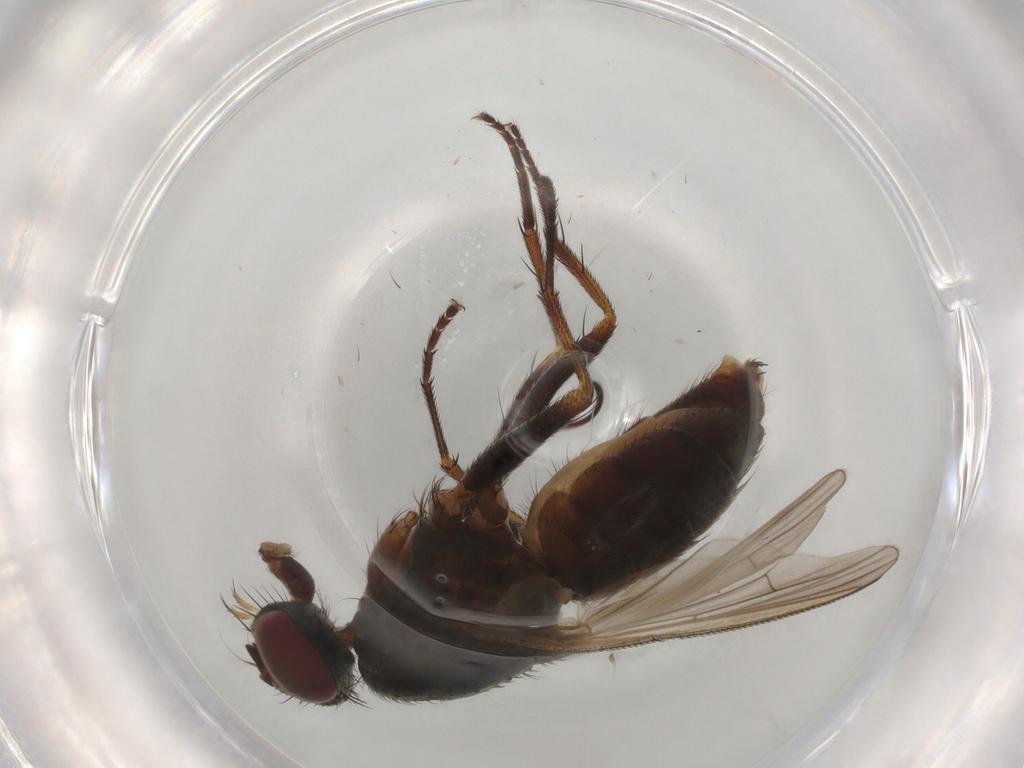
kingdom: Animalia
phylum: Arthropoda
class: Insecta
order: Diptera
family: Muscidae
